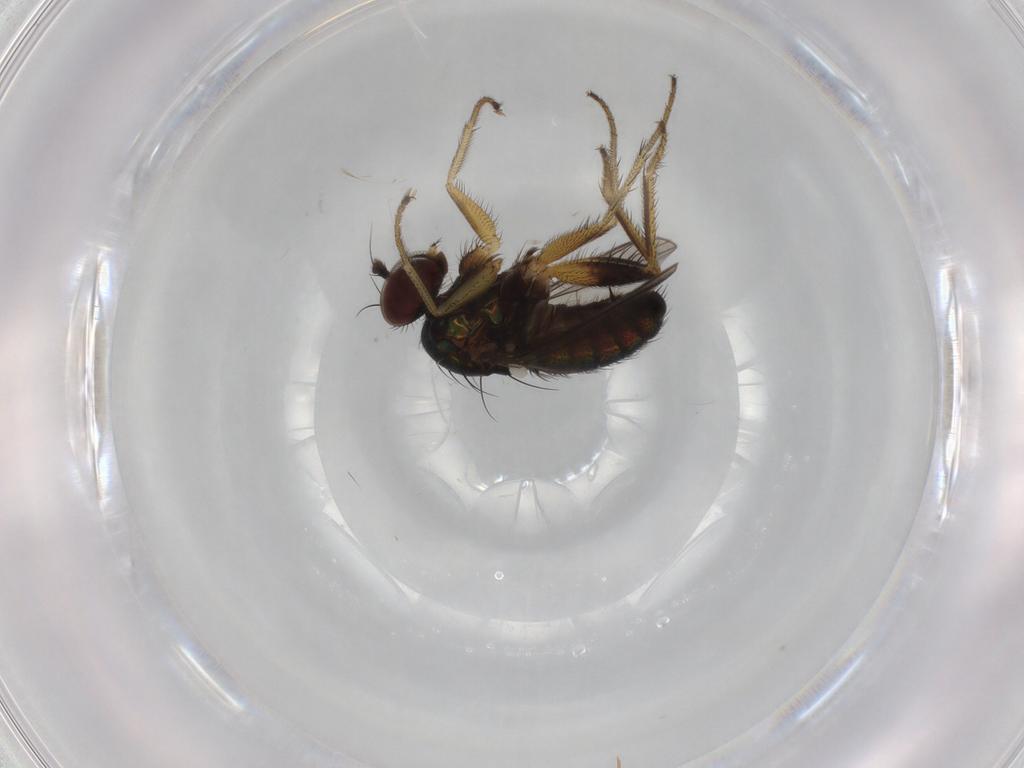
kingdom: Animalia
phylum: Arthropoda
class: Insecta
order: Diptera
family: Dolichopodidae
